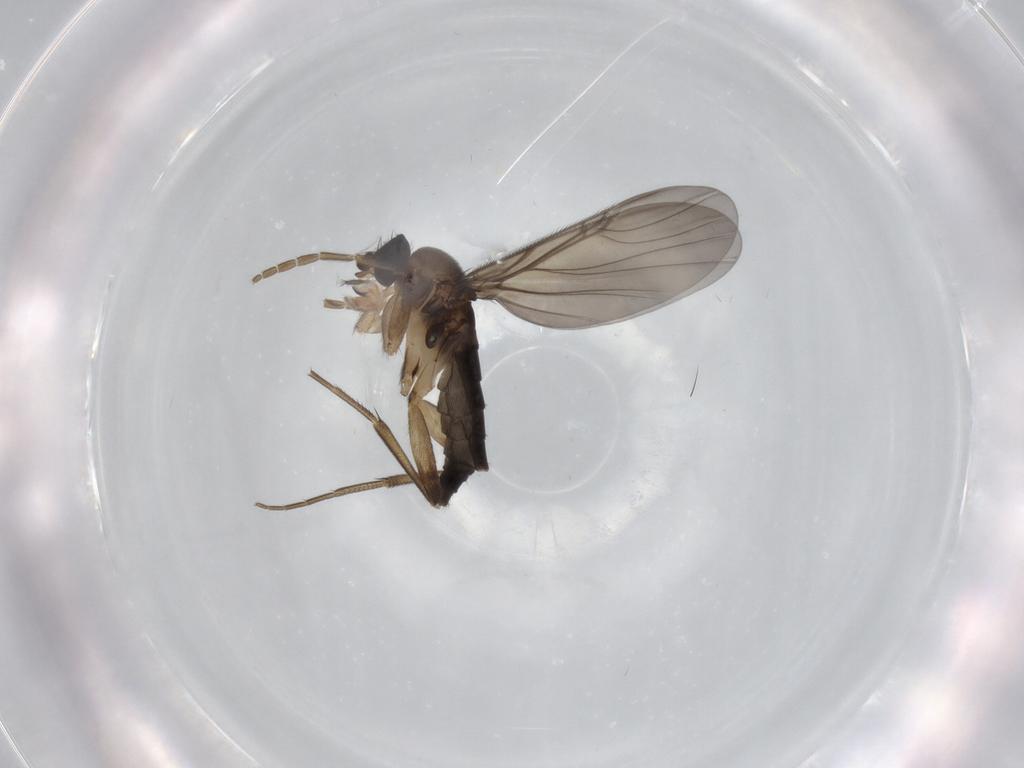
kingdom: Animalia
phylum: Arthropoda
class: Insecta
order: Diptera
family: Phoridae
